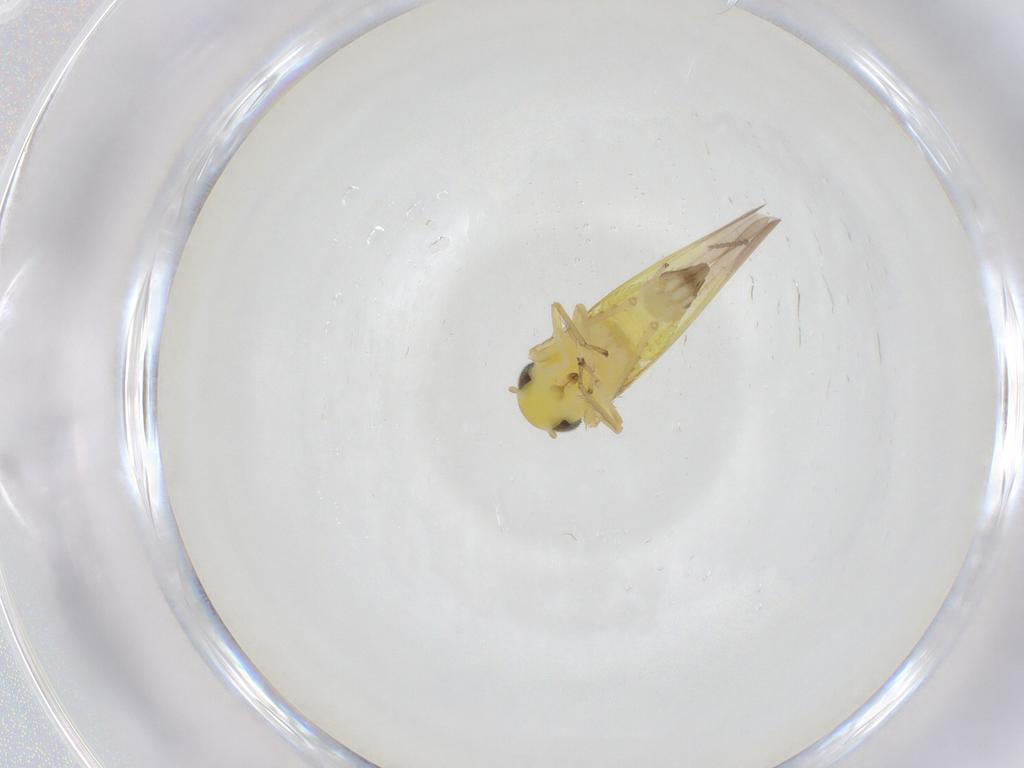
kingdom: Animalia
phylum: Arthropoda
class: Insecta
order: Hemiptera
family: Cicadellidae
